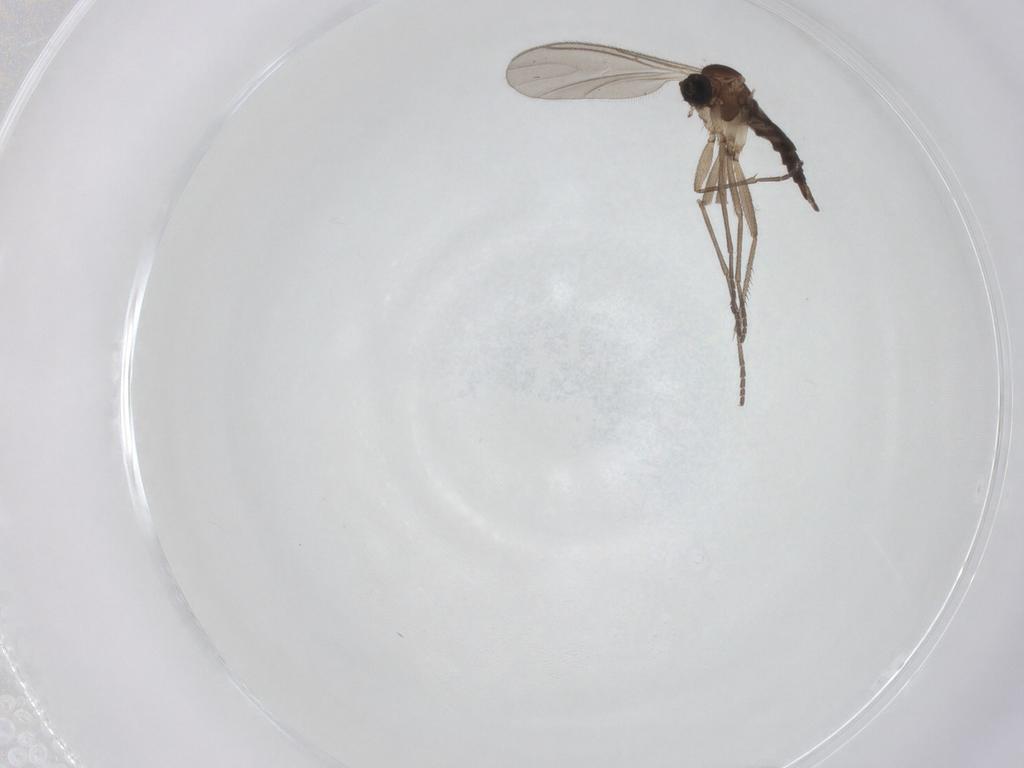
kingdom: Animalia
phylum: Arthropoda
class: Insecta
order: Diptera
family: Sciaridae
